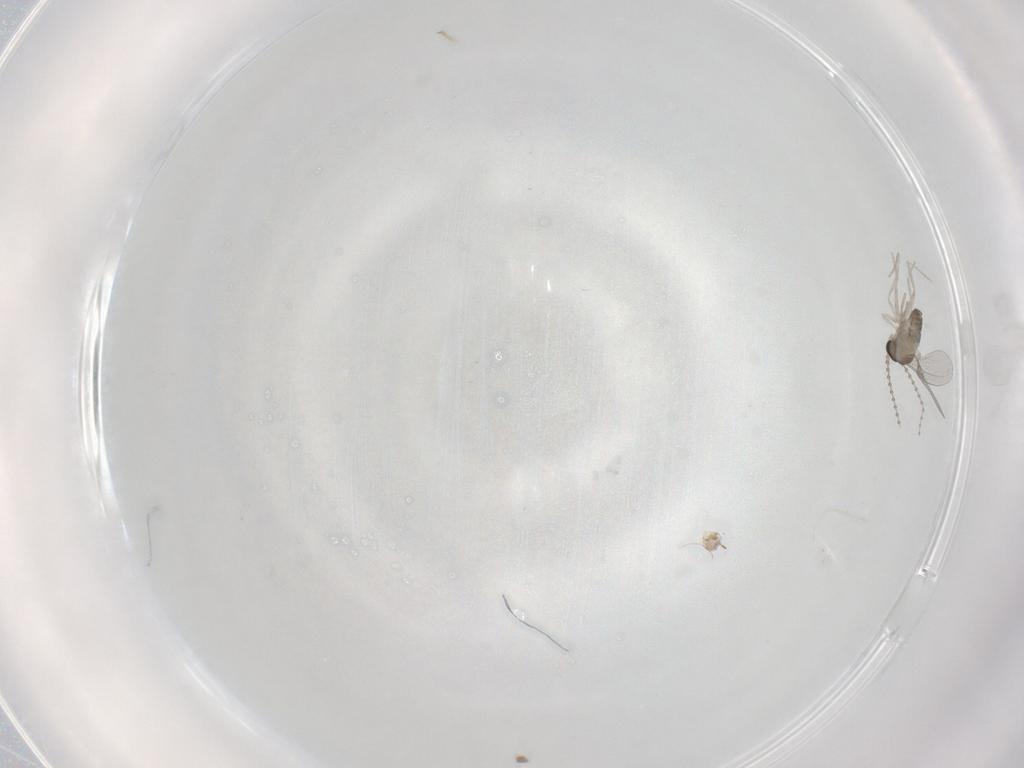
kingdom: Animalia
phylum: Arthropoda
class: Insecta
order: Diptera
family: Cecidomyiidae
